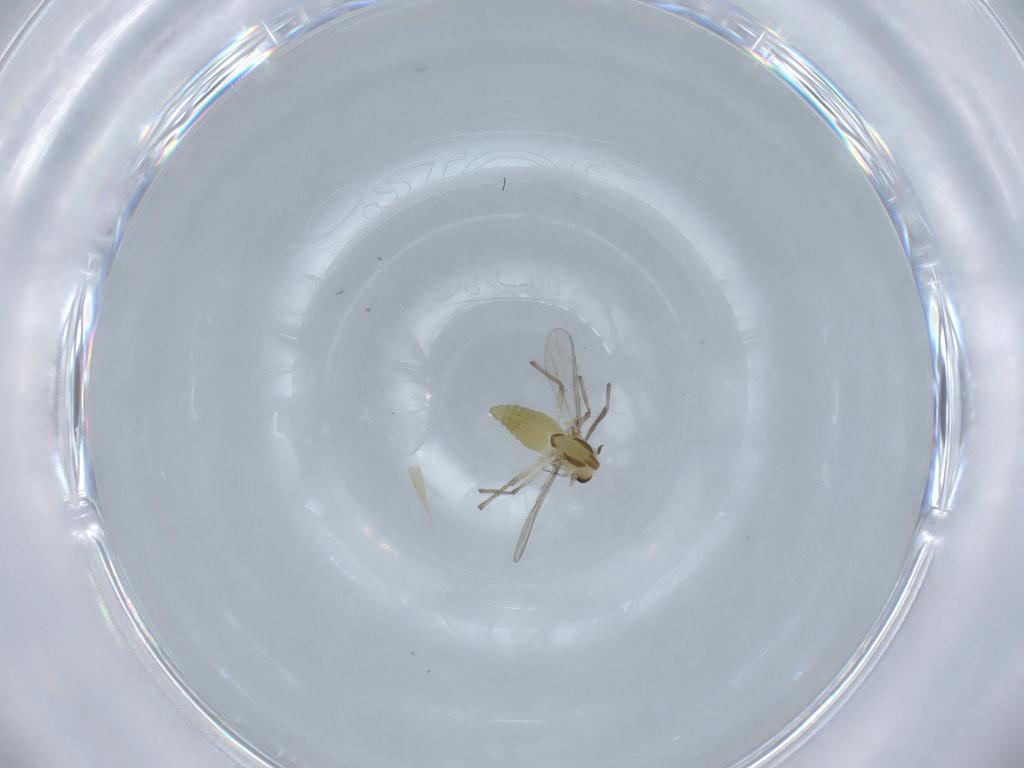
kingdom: Animalia
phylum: Arthropoda
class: Insecta
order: Diptera
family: Chironomidae
